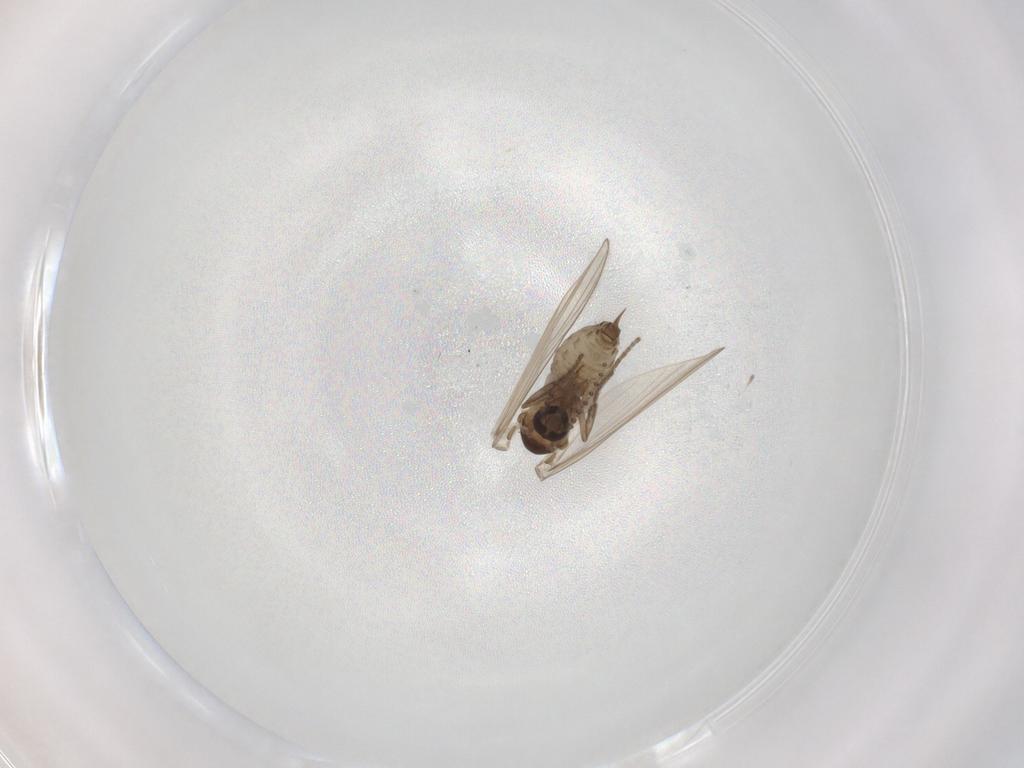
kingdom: Animalia
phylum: Arthropoda
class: Insecta
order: Diptera
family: Psychodidae
